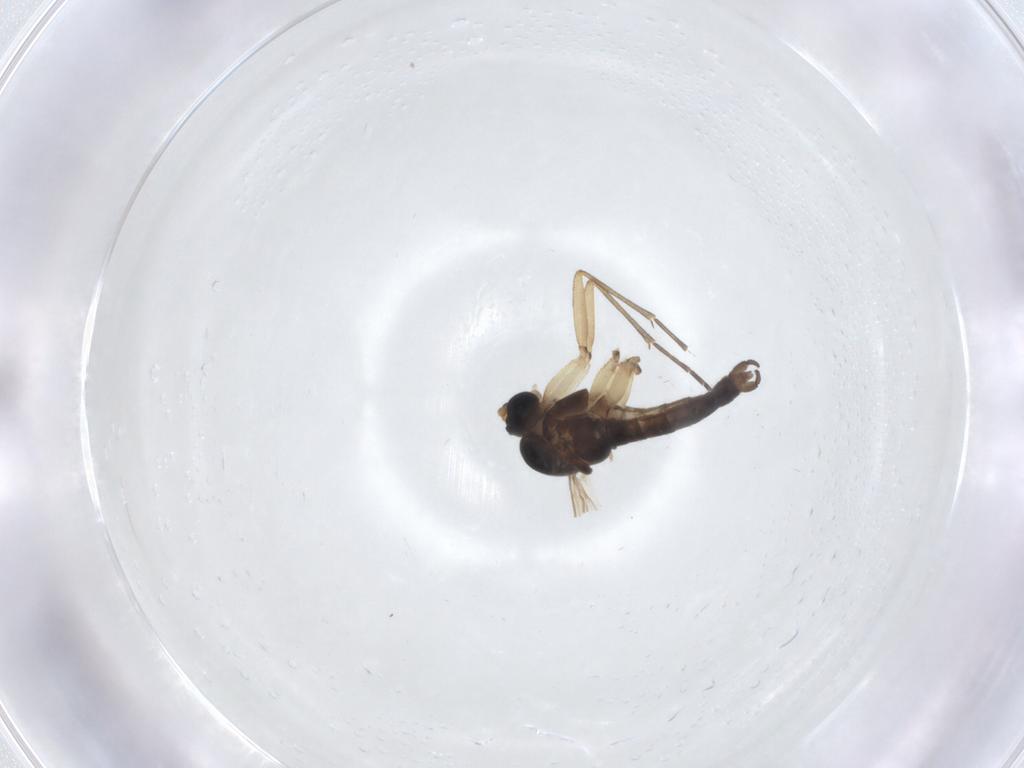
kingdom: Animalia
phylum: Arthropoda
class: Insecta
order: Diptera
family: Sciaridae
